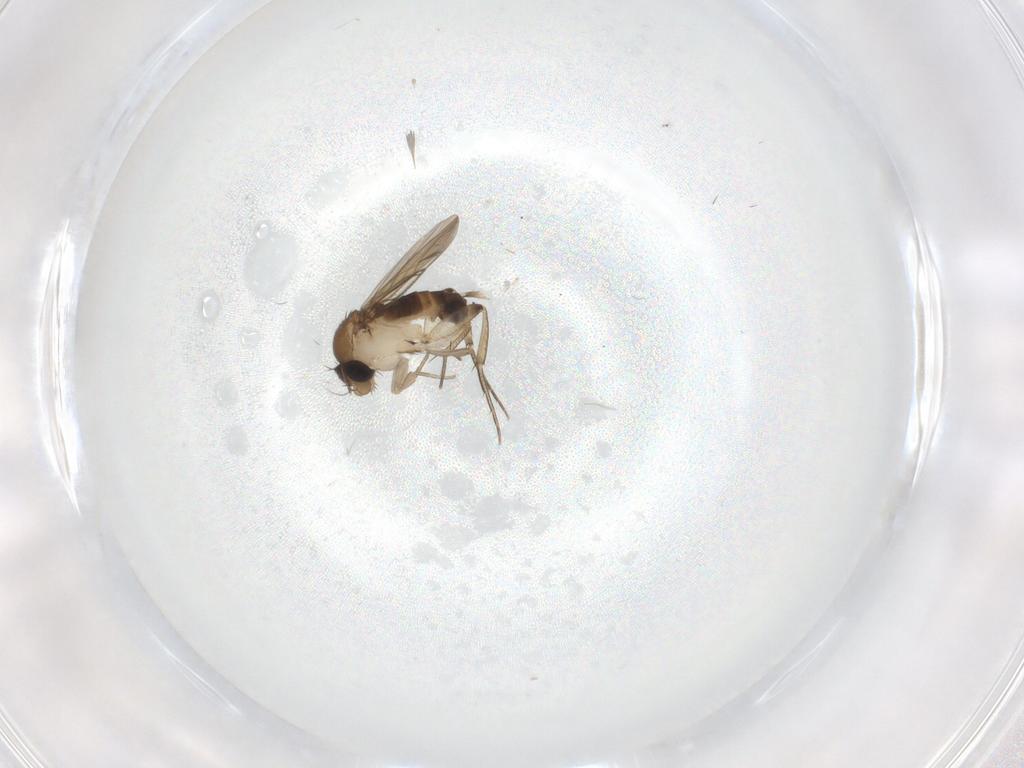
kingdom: Animalia
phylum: Arthropoda
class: Insecta
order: Diptera
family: Phoridae
